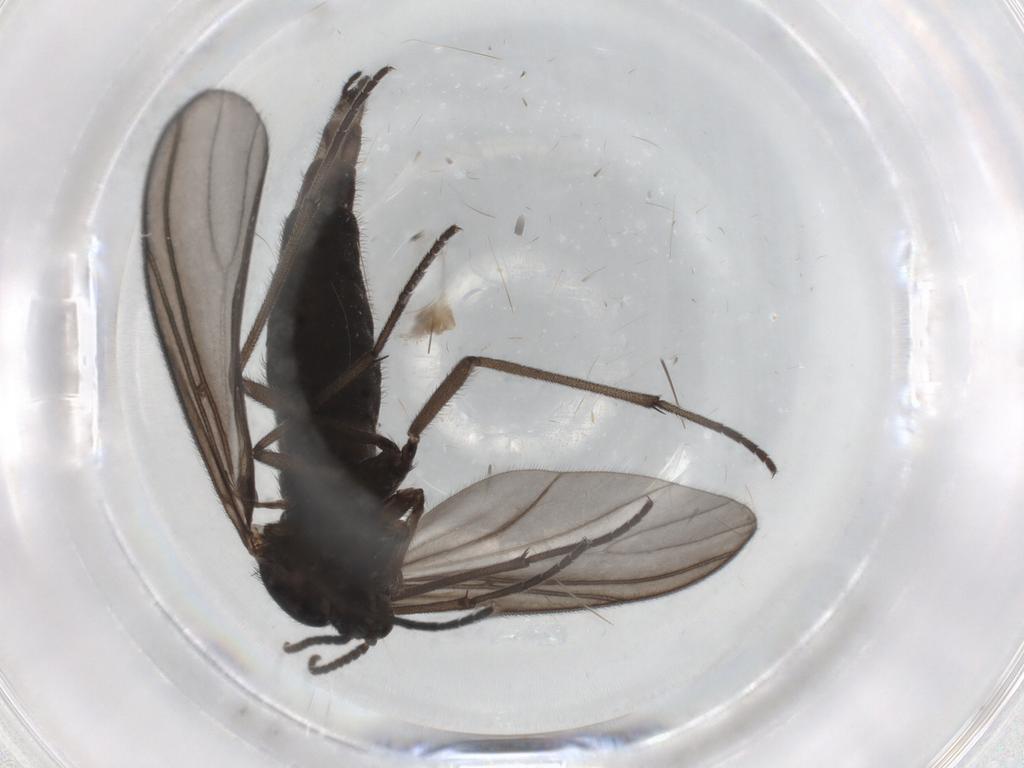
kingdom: Animalia
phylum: Arthropoda
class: Insecta
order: Diptera
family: Sciaridae
